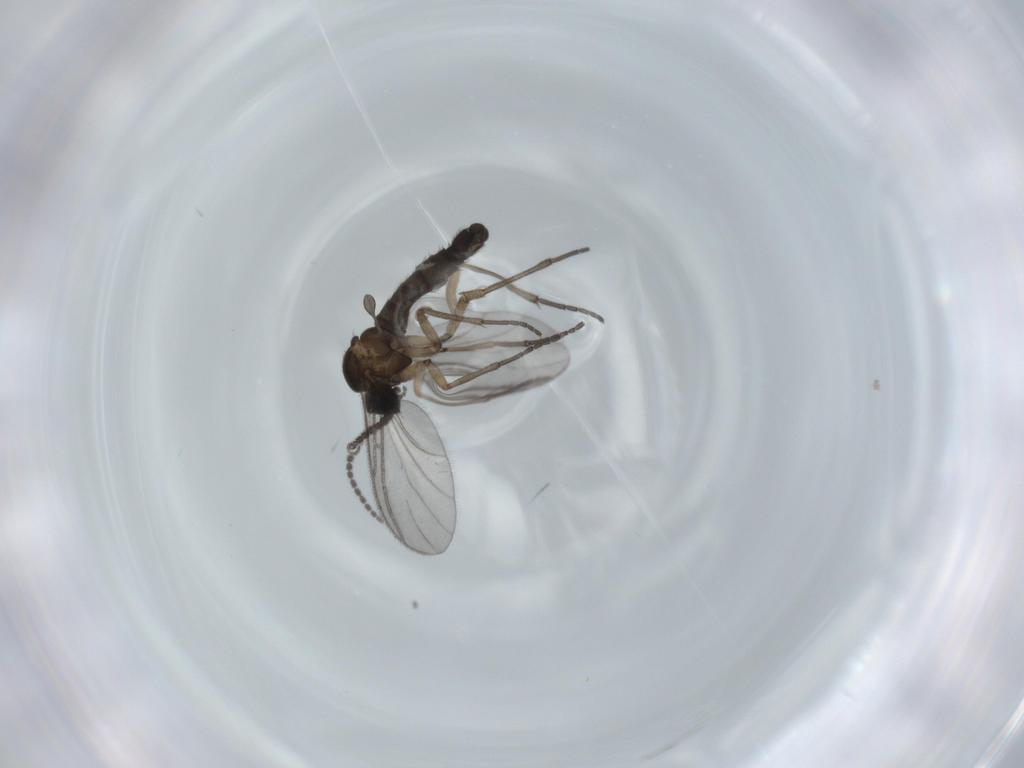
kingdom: Animalia
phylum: Arthropoda
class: Insecta
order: Diptera
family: Sciaridae
